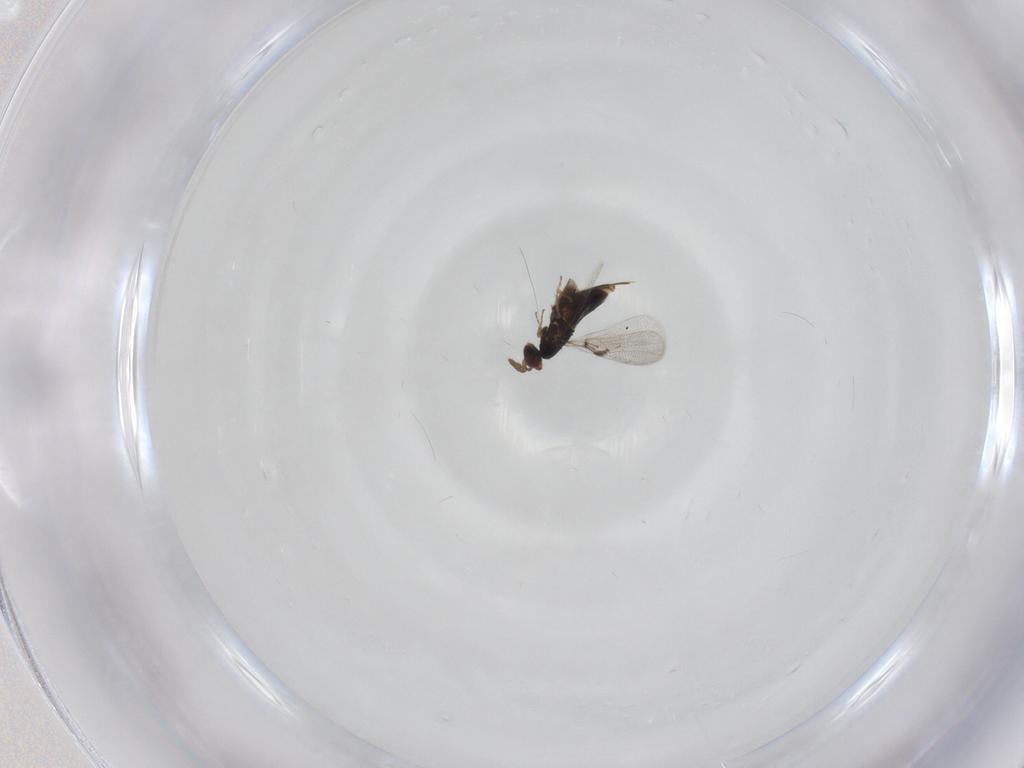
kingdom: Animalia
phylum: Arthropoda
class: Insecta
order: Hymenoptera
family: Trichogrammatidae
